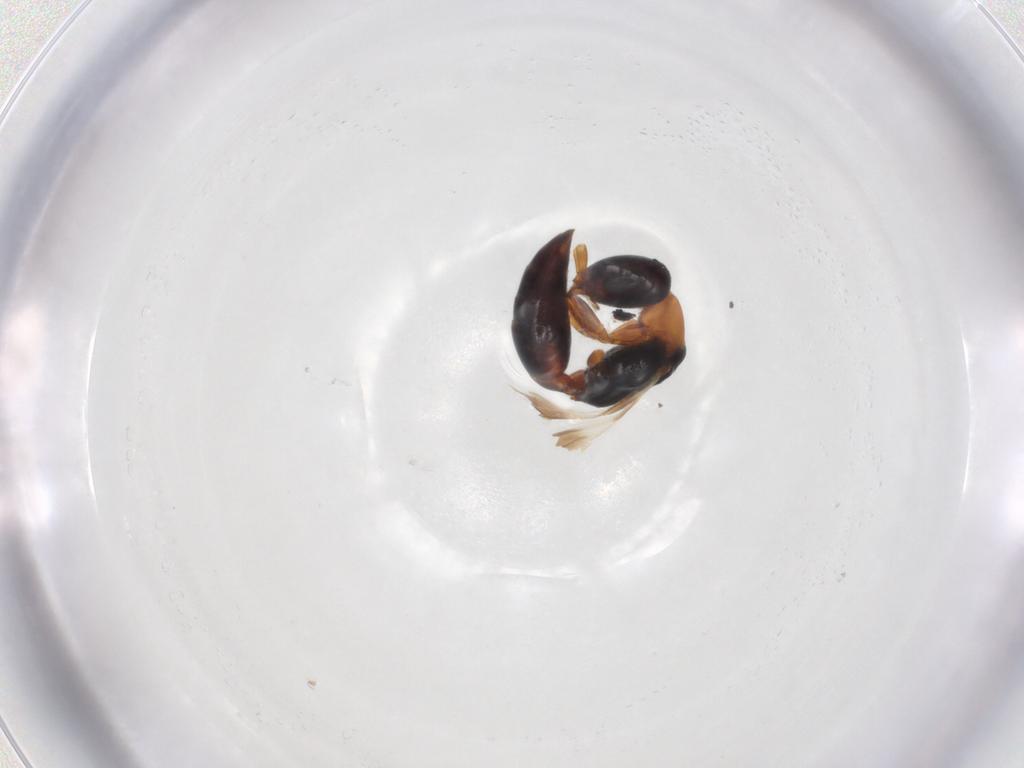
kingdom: Animalia
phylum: Arthropoda
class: Insecta
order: Hymenoptera
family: Bethylidae
